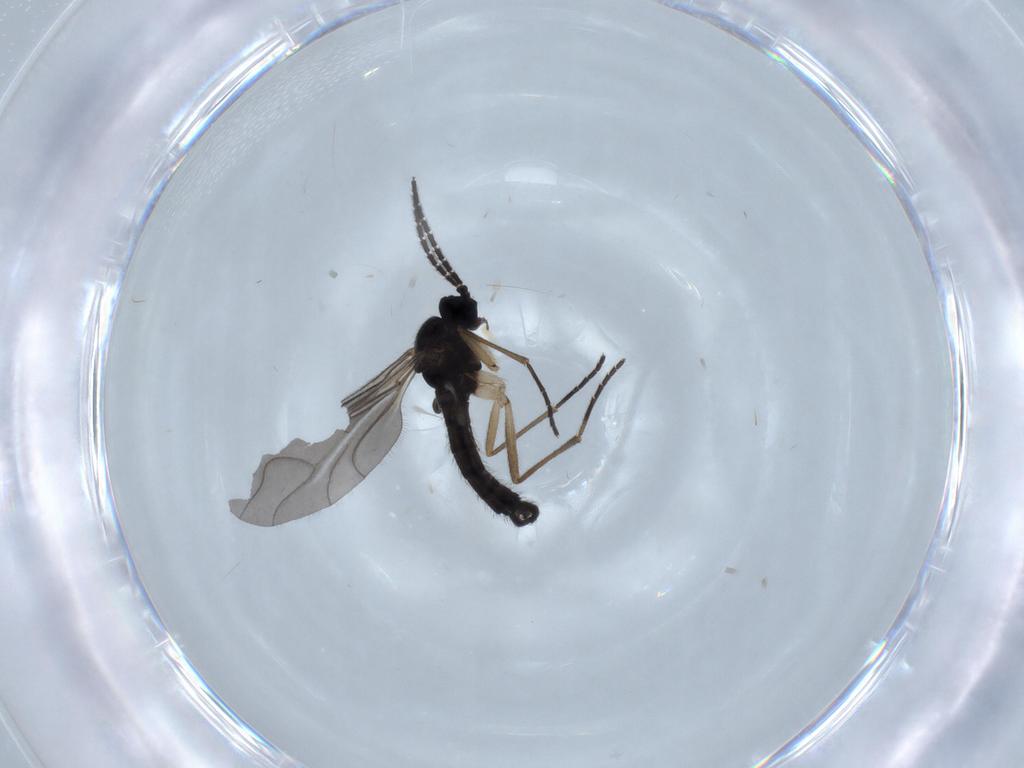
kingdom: Animalia
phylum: Arthropoda
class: Insecta
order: Diptera
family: Sciaridae
